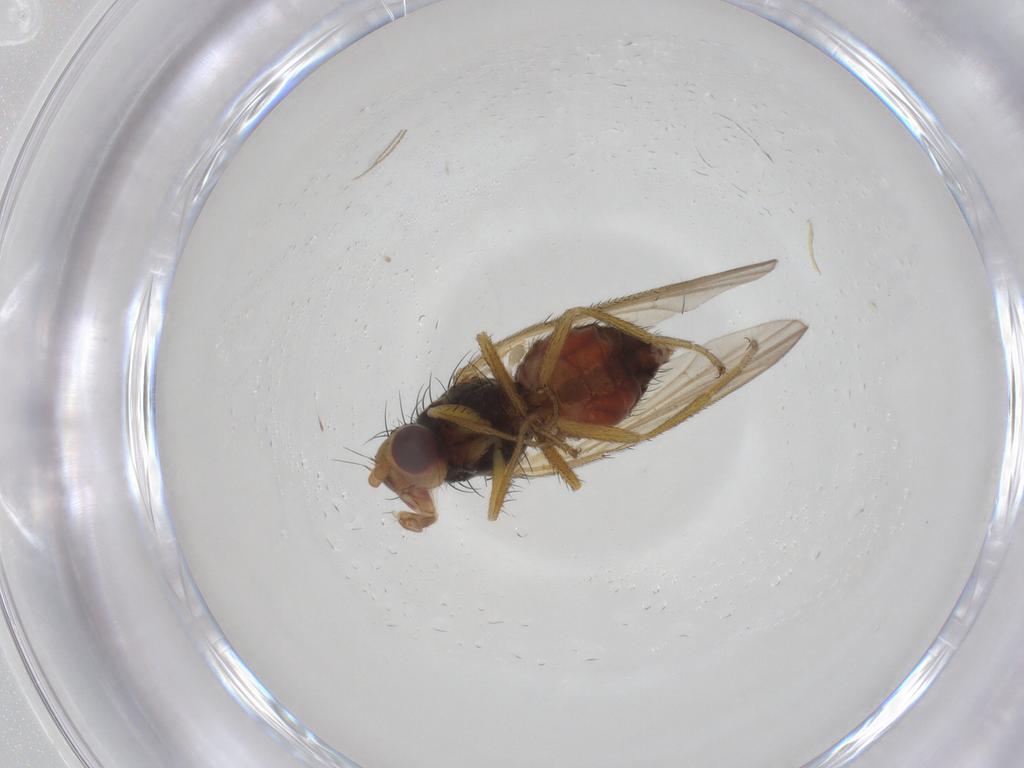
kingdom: Animalia
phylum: Arthropoda
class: Insecta
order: Diptera
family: Heleomyzidae
